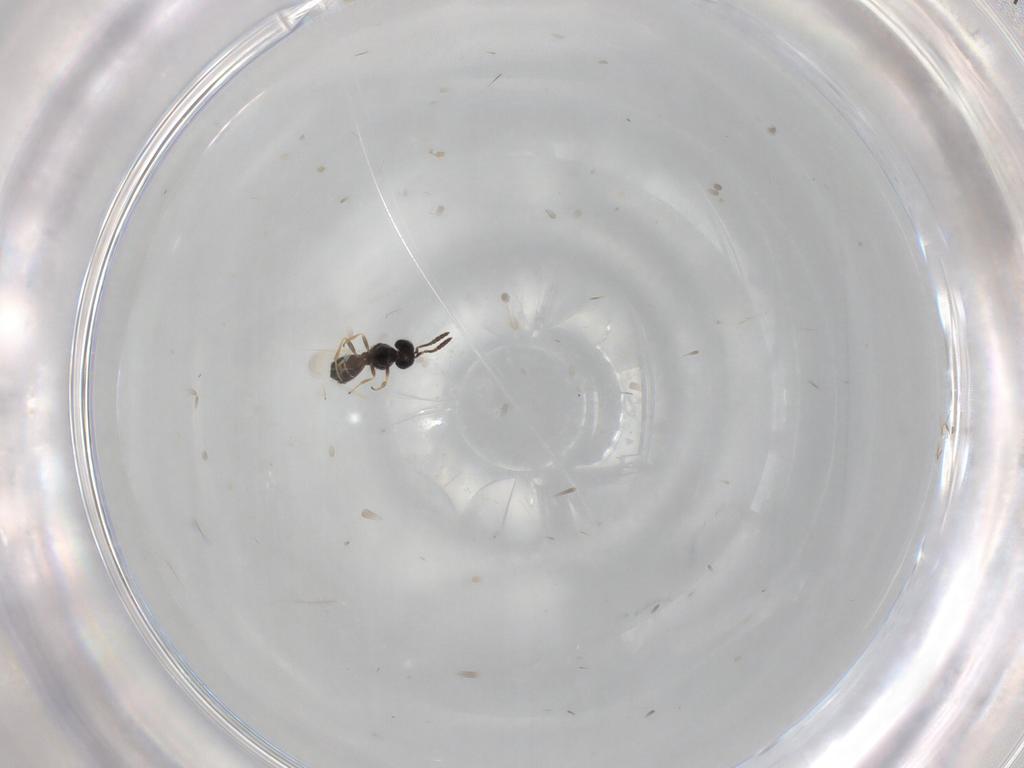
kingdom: Animalia
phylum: Arthropoda
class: Insecta
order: Hymenoptera
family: Scelionidae
